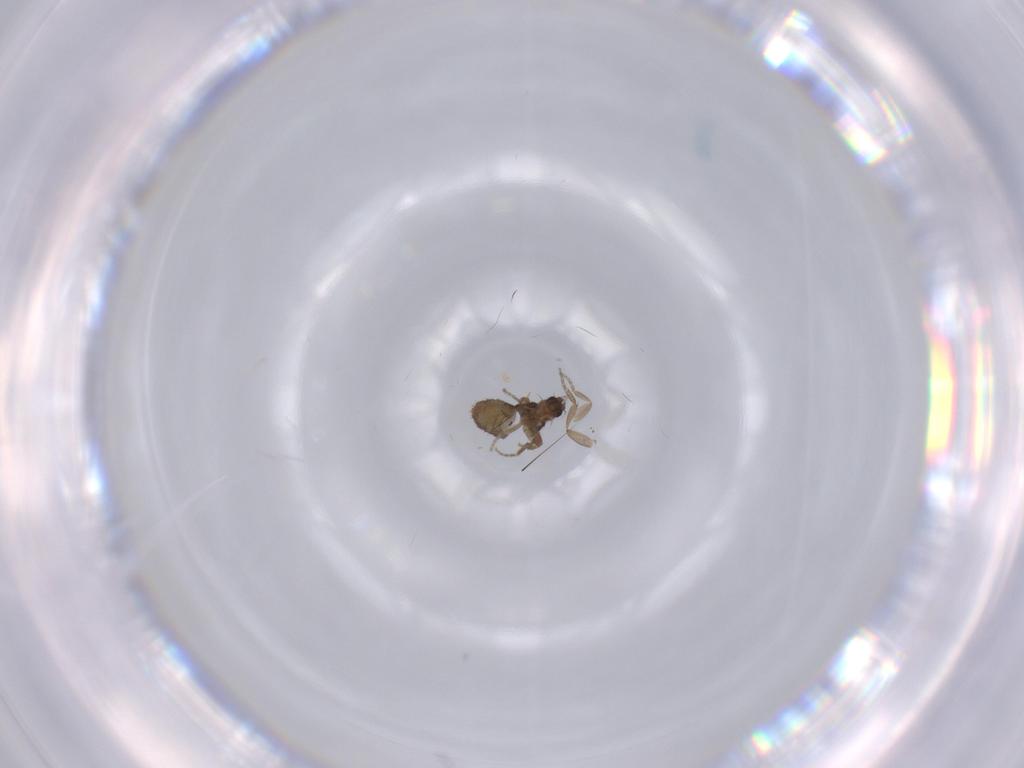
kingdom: Animalia
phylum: Arthropoda
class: Insecta
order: Diptera
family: Phoridae
